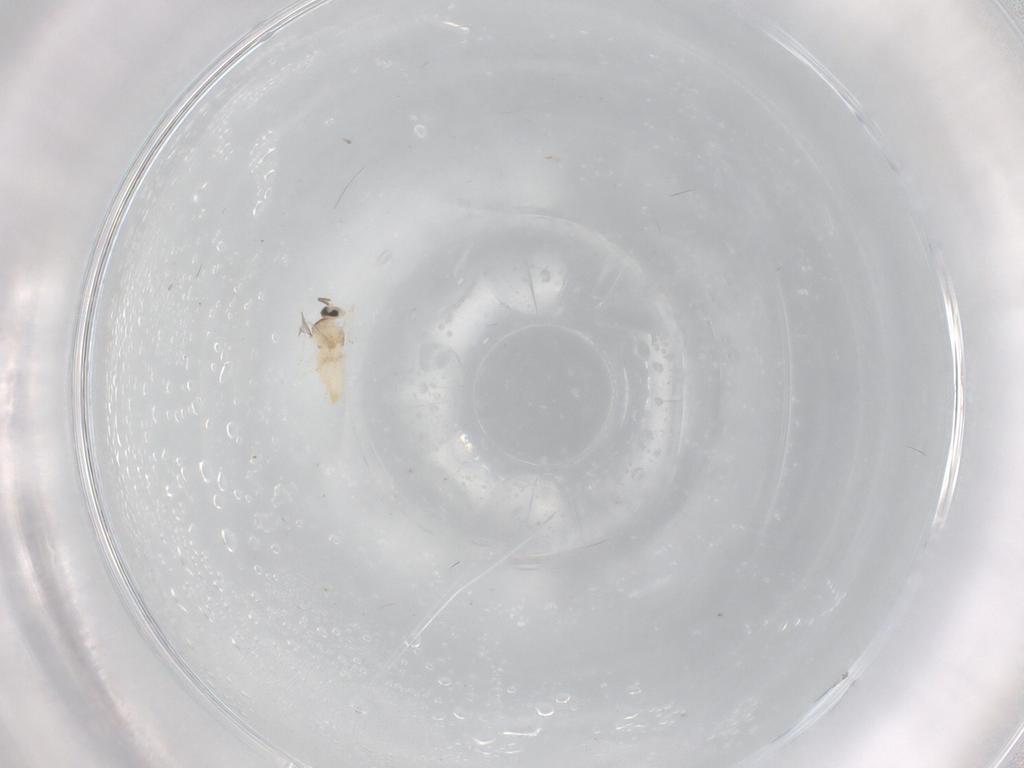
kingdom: Animalia
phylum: Arthropoda
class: Insecta
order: Diptera
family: Cecidomyiidae
